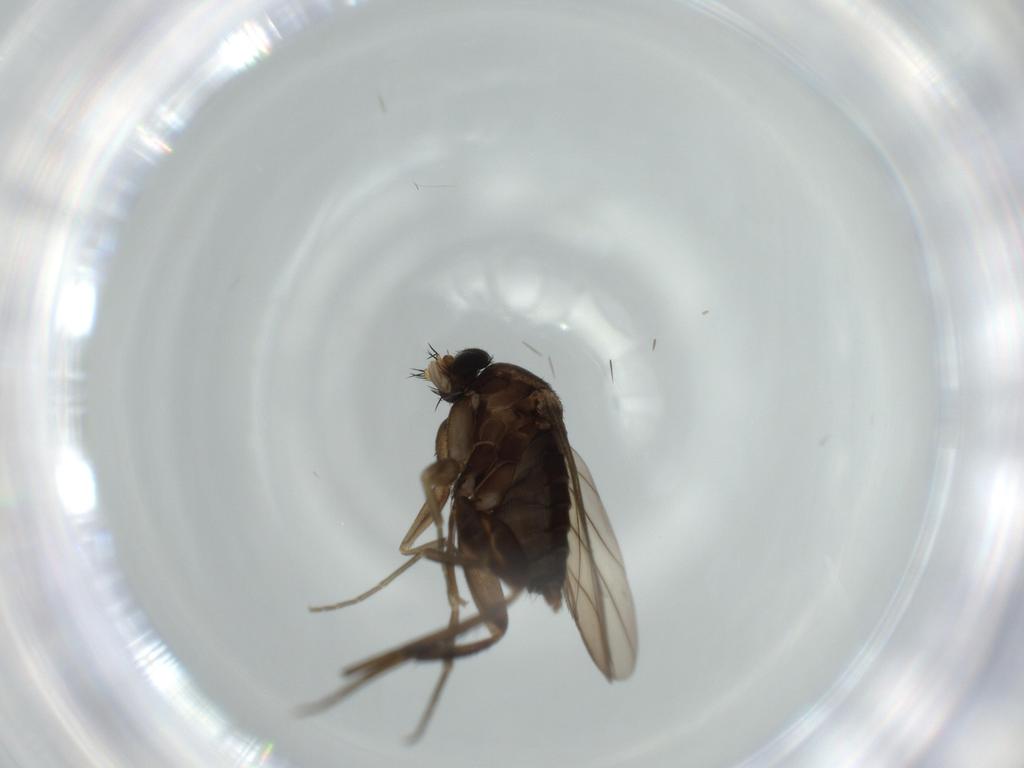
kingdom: Animalia
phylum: Arthropoda
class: Insecta
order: Diptera
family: Phoridae
